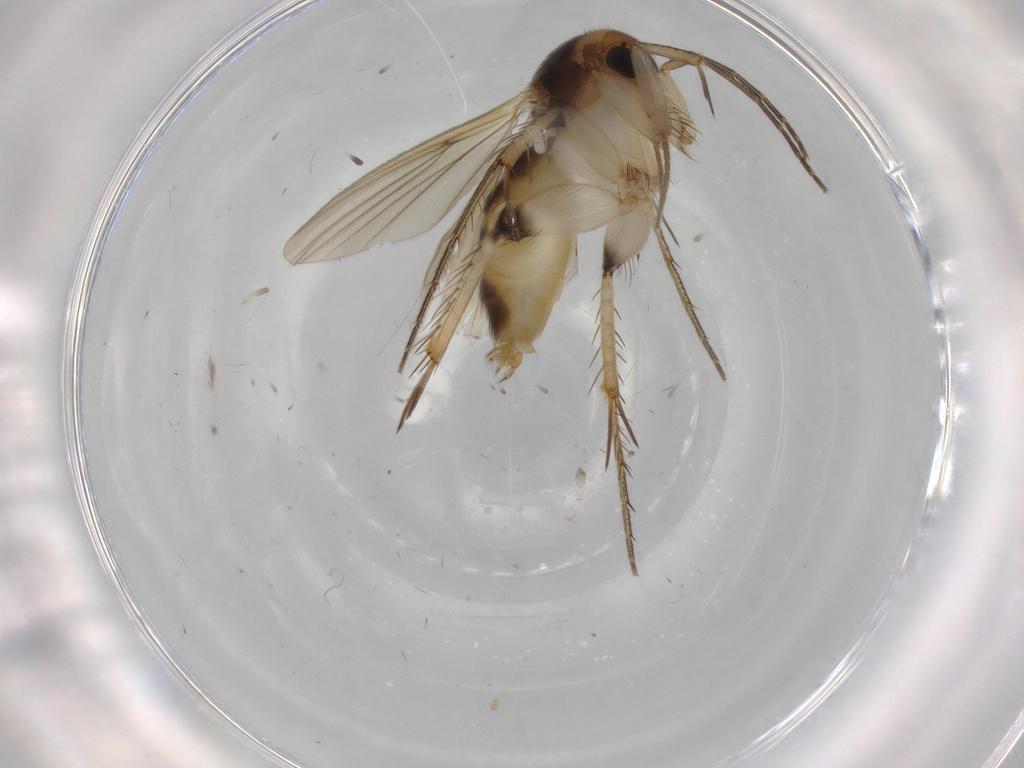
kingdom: Animalia
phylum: Arthropoda
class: Insecta
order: Diptera
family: Mycetophilidae
